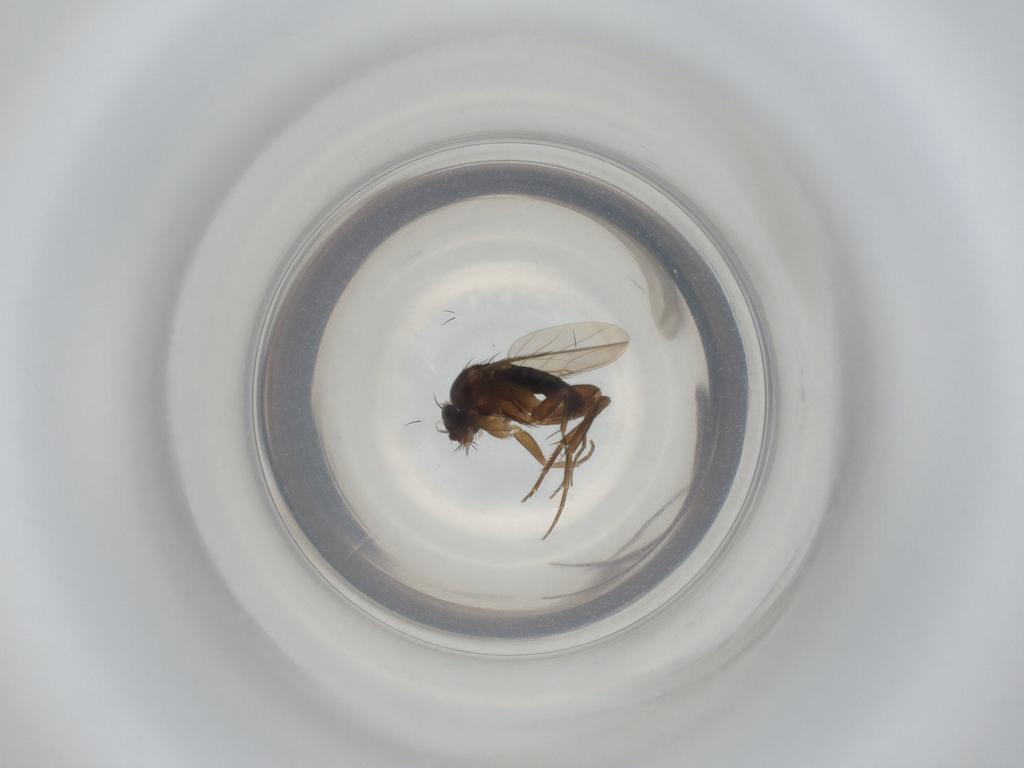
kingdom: Animalia
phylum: Arthropoda
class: Insecta
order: Diptera
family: Phoridae
